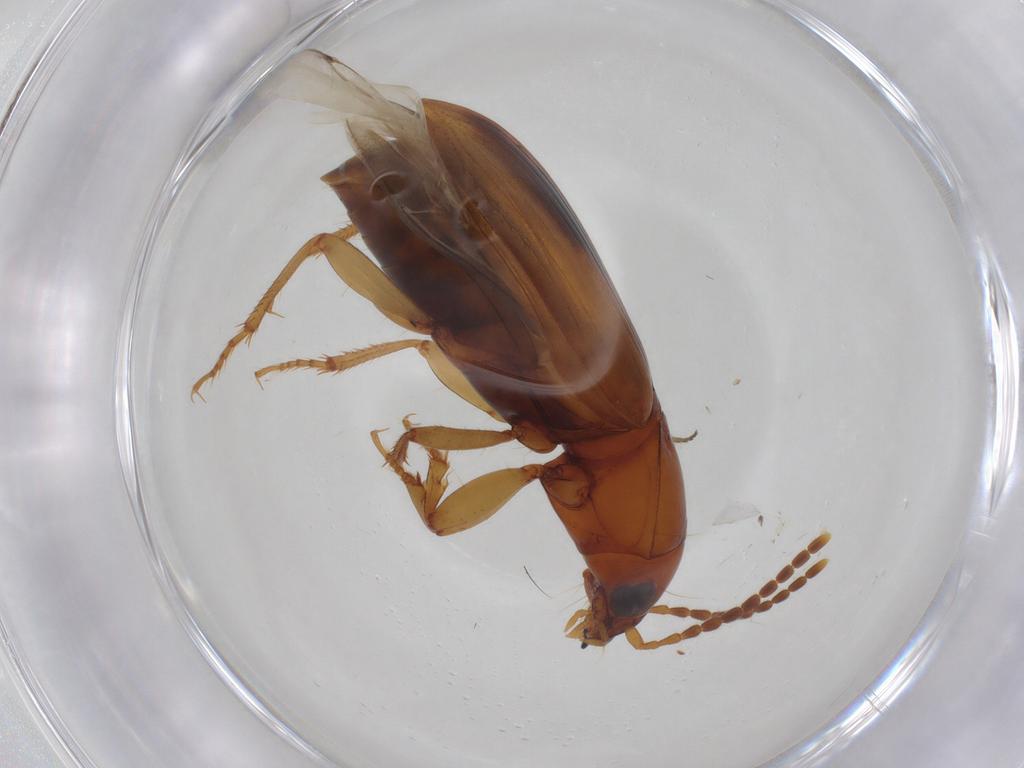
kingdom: Animalia
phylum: Arthropoda
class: Insecta
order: Coleoptera
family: Carabidae
